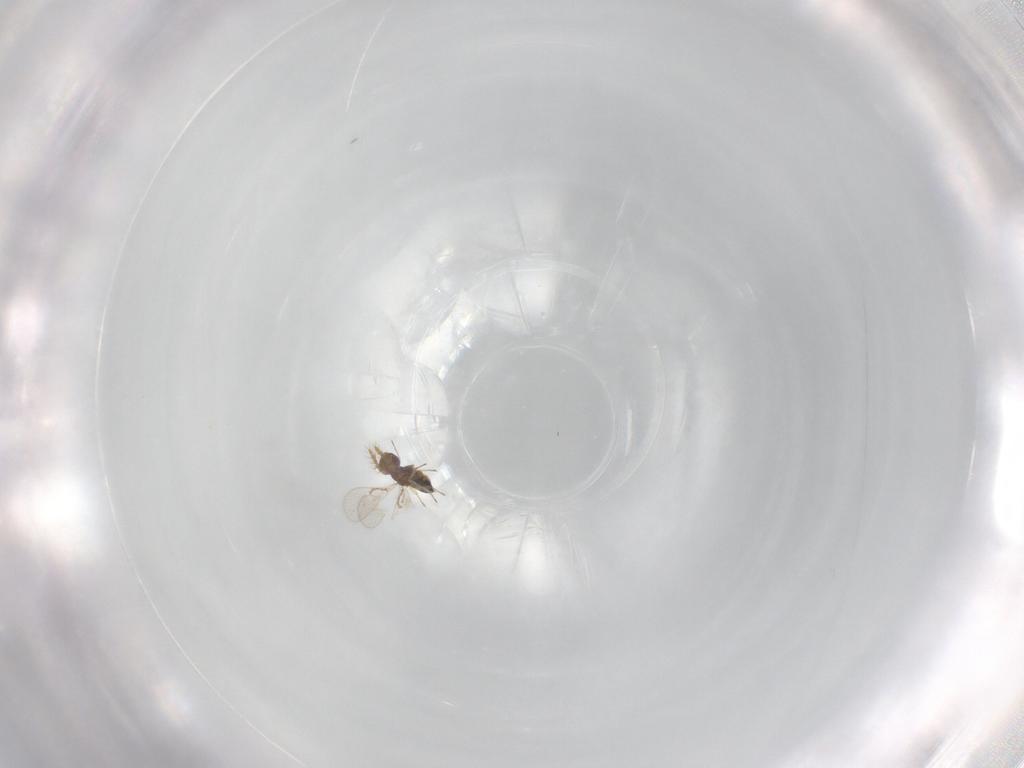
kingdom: Animalia
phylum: Arthropoda
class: Insecta
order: Hymenoptera
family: Trichogrammatidae
